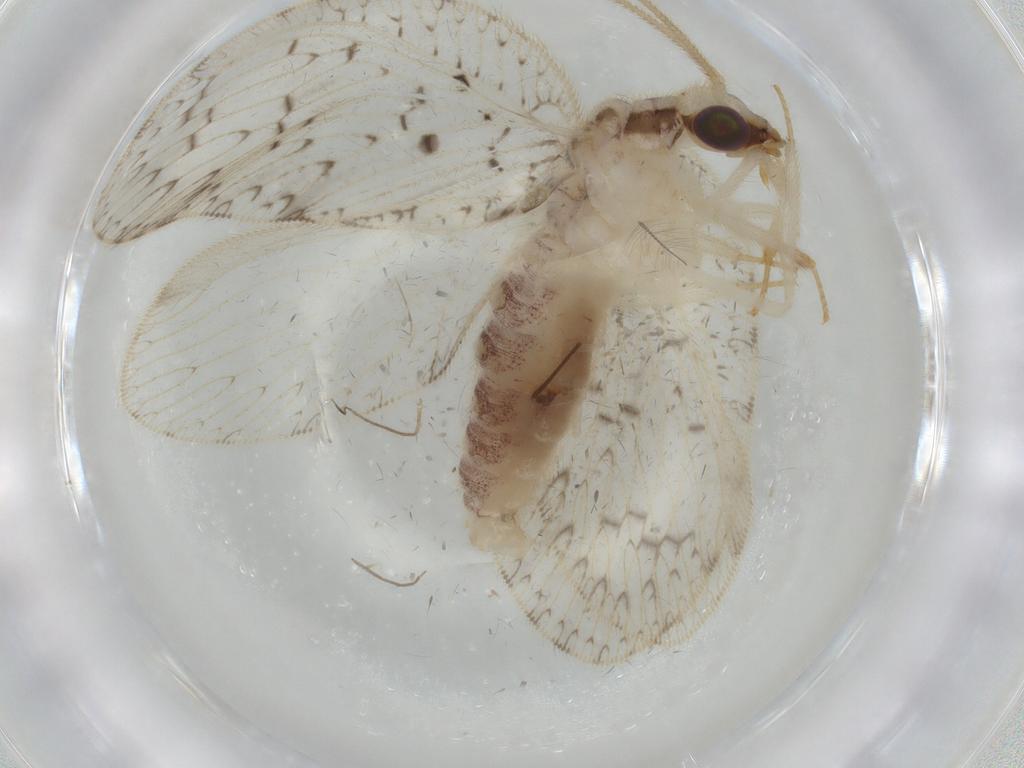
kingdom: Animalia
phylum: Arthropoda
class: Insecta
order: Neuroptera
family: Hemerobiidae
